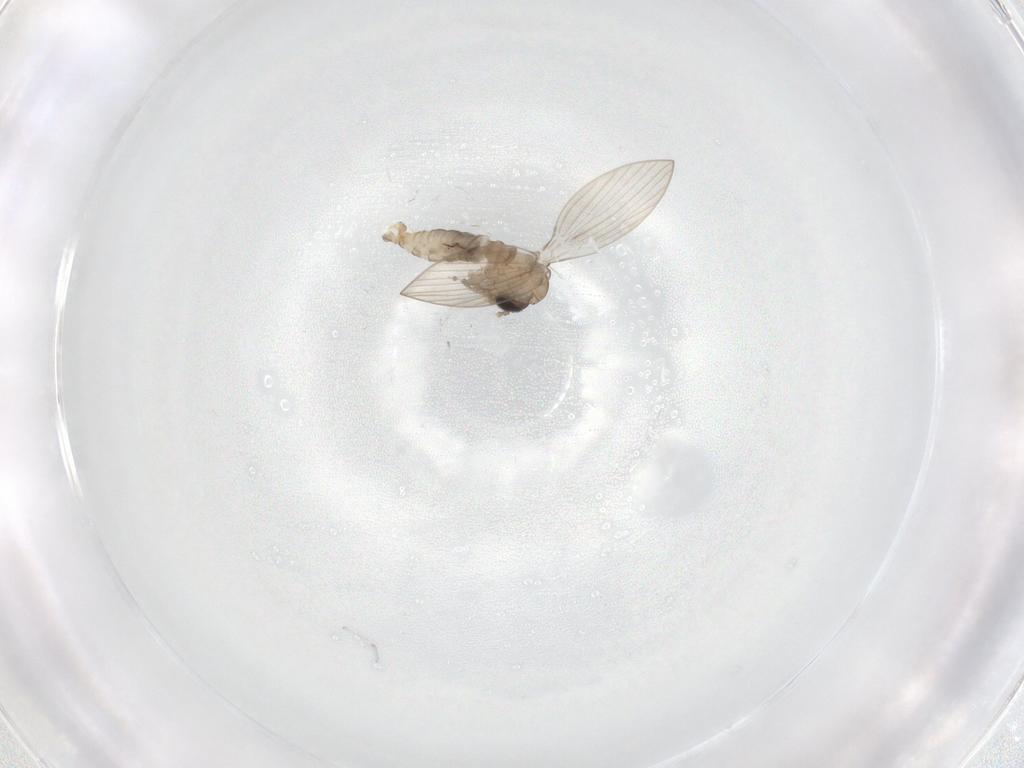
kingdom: Animalia
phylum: Arthropoda
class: Insecta
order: Diptera
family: Psychodidae
